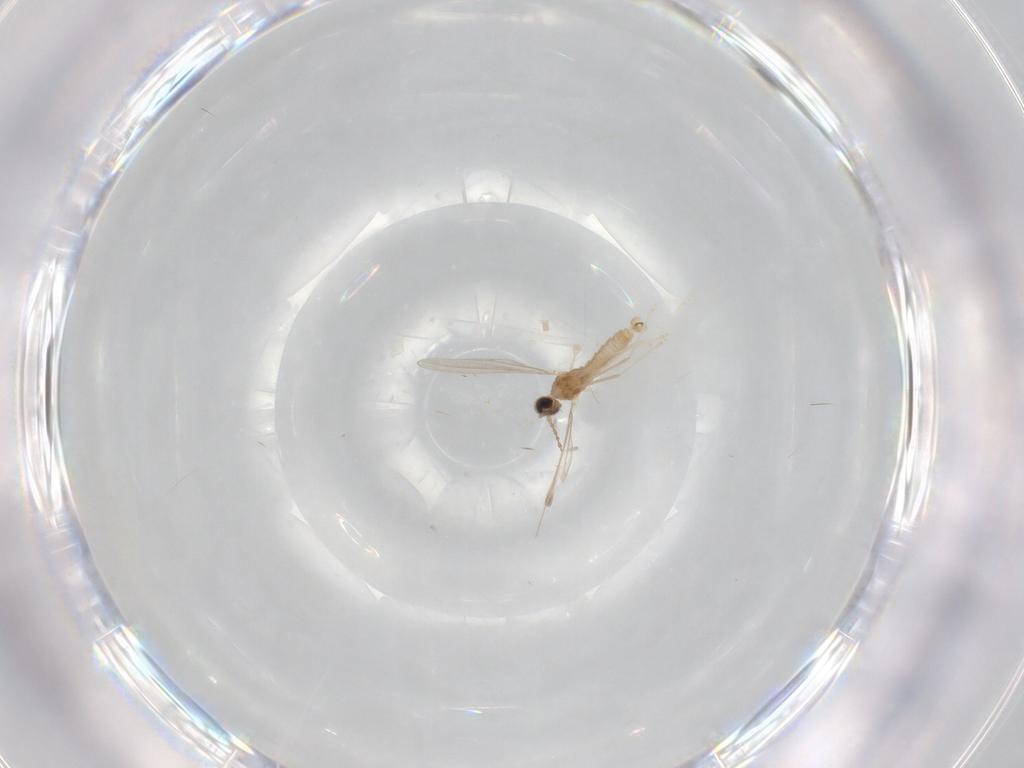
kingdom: Animalia
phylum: Arthropoda
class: Insecta
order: Diptera
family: Cecidomyiidae
